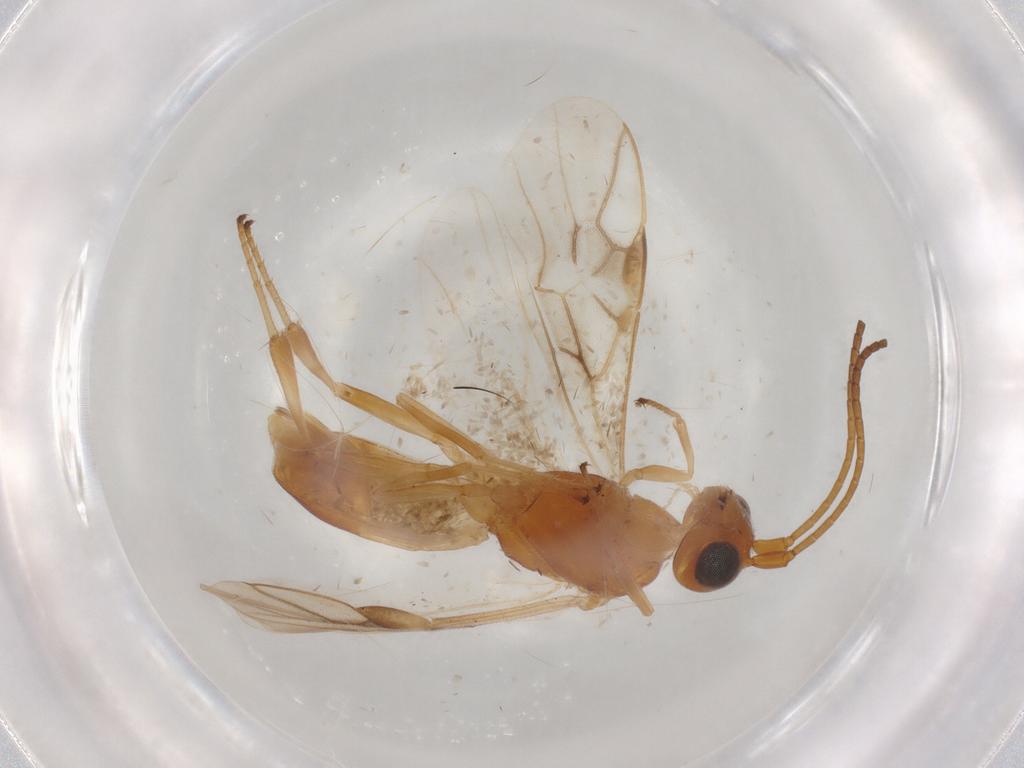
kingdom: Animalia
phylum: Arthropoda
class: Insecta
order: Hymenoptera
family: Braconidae
